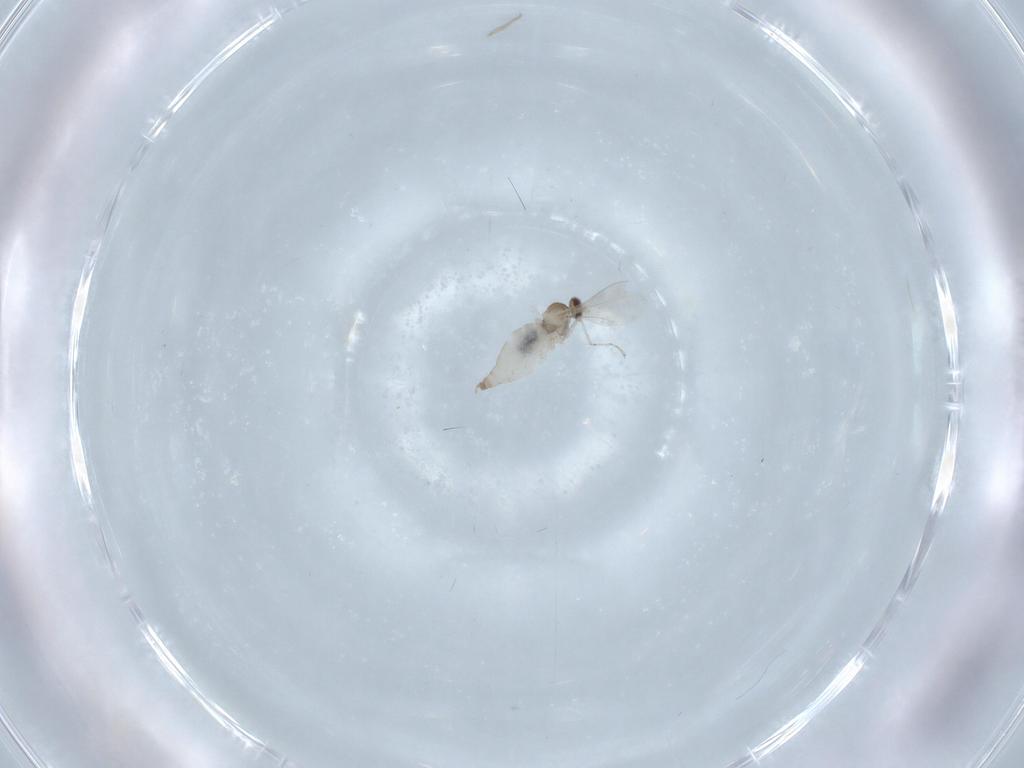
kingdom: Animalia
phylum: Arthropoda
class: Insecta
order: Diptera
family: Cecidomyiidae
